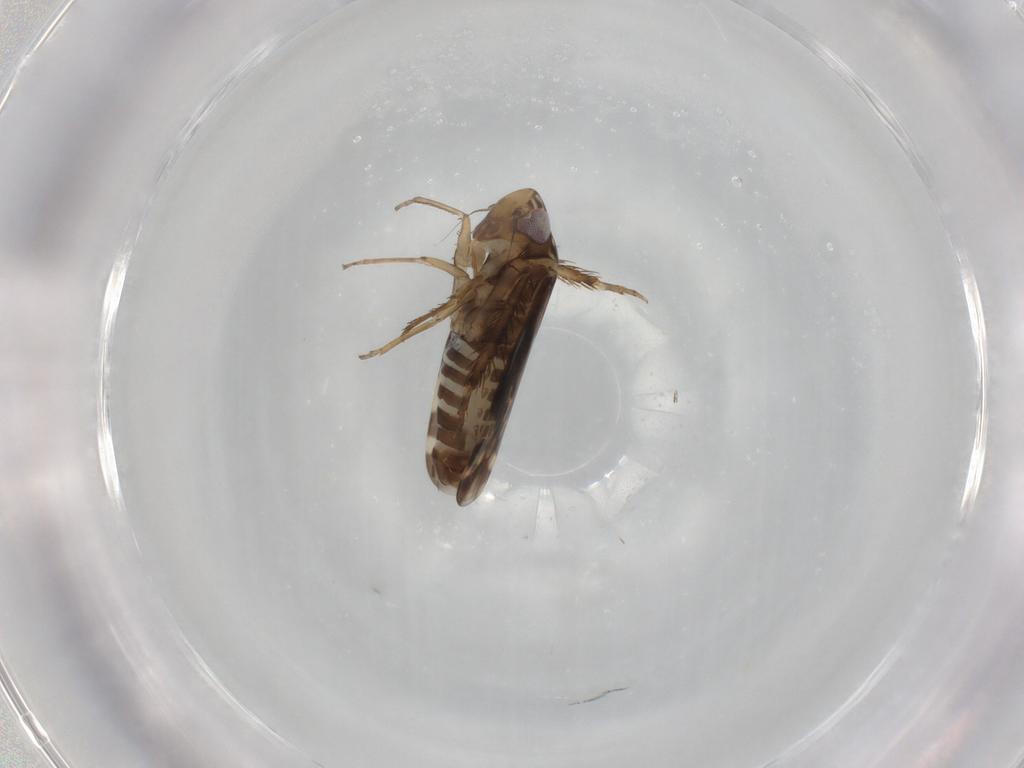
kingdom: Animalia
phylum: Arthropoda
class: Insecta
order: Hemiptera
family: Cicadellidae
